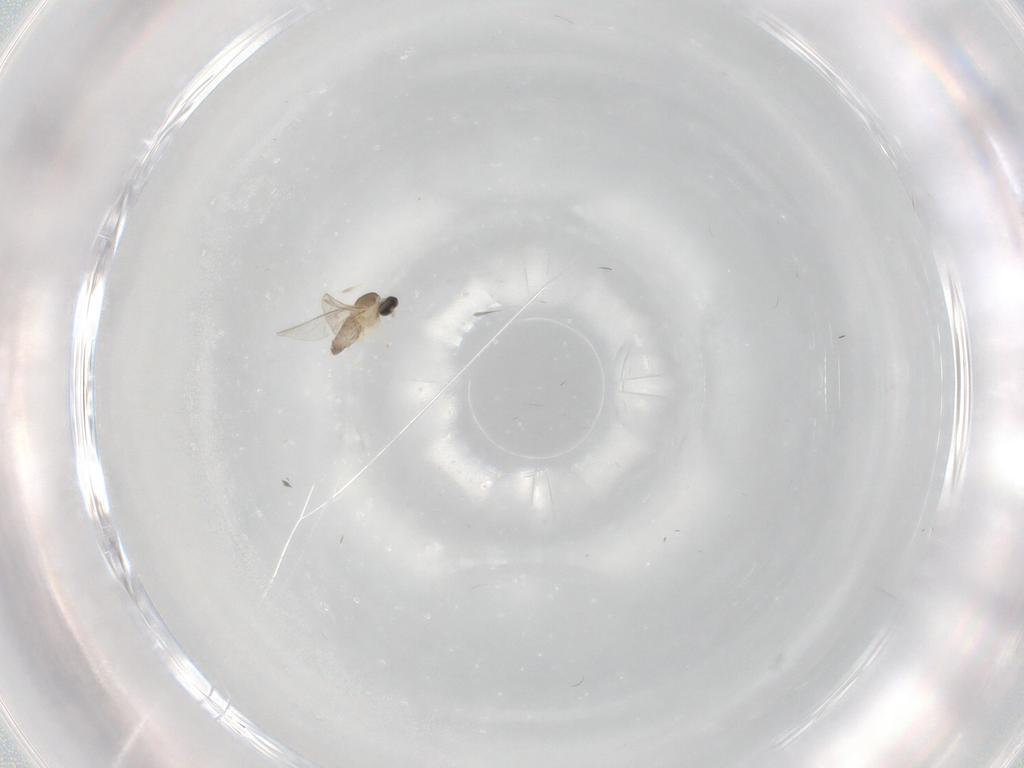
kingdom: Animalia
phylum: Arthropoda
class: Insecta
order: Diptera
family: Cecidomyiidae
